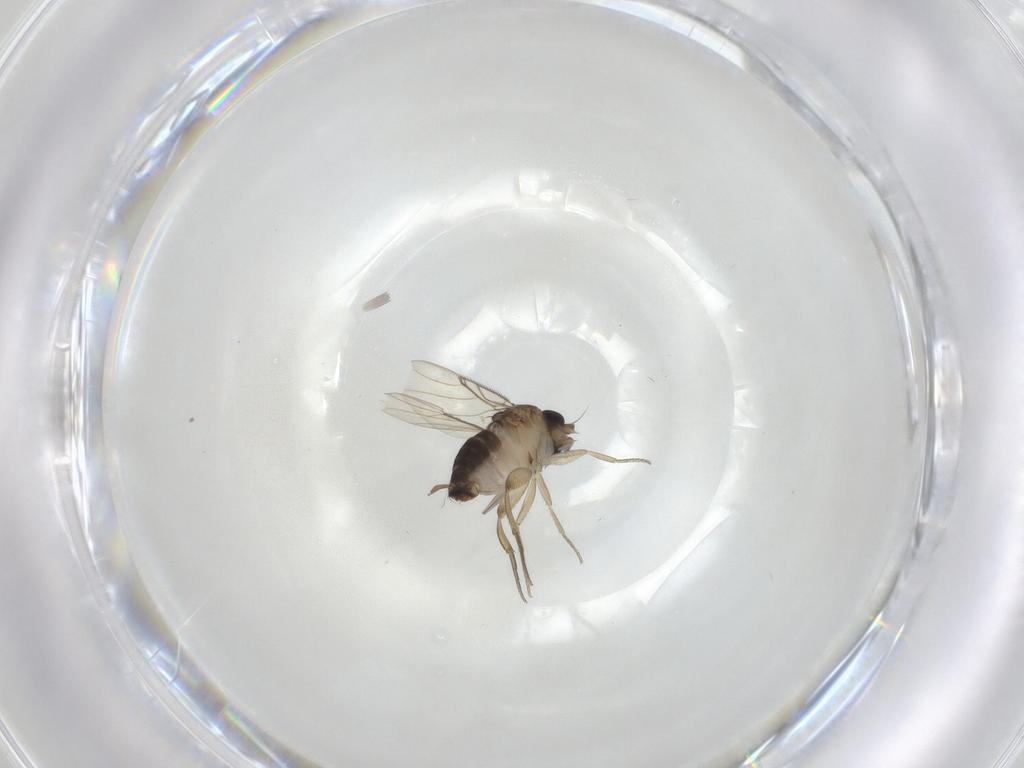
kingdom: Animalia
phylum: Arthropoda
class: Insecta
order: Diptera
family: Phoridae
